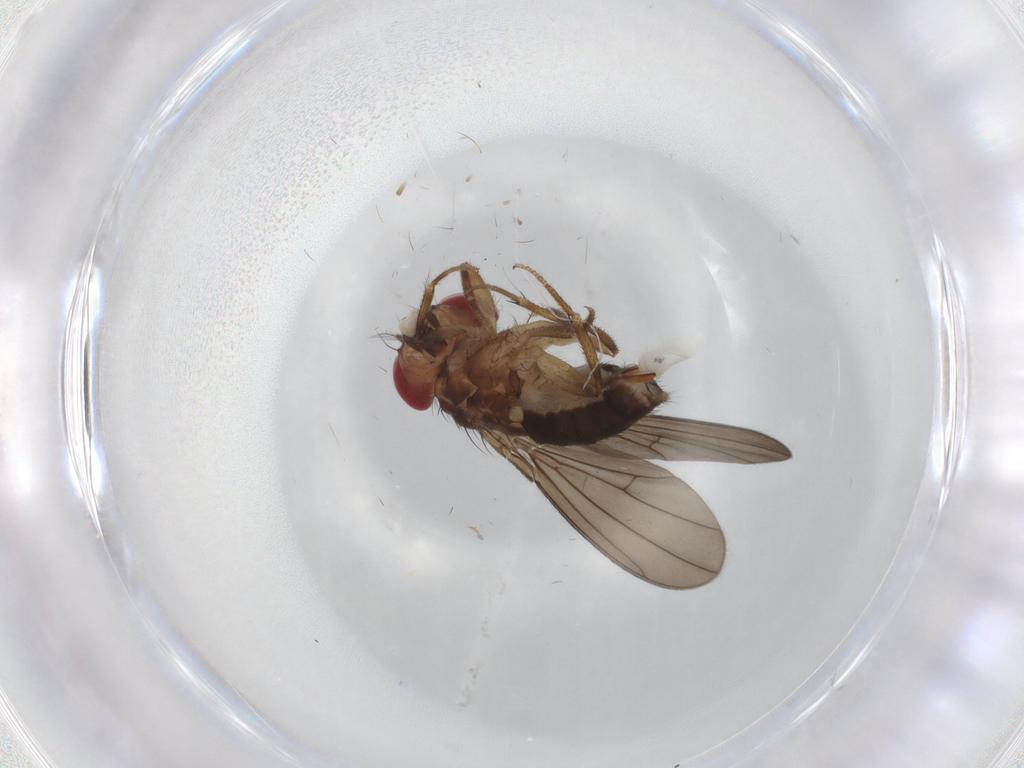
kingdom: Animalia
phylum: Arthropoda
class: Insecta
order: Diptera
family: Drosophilidae
